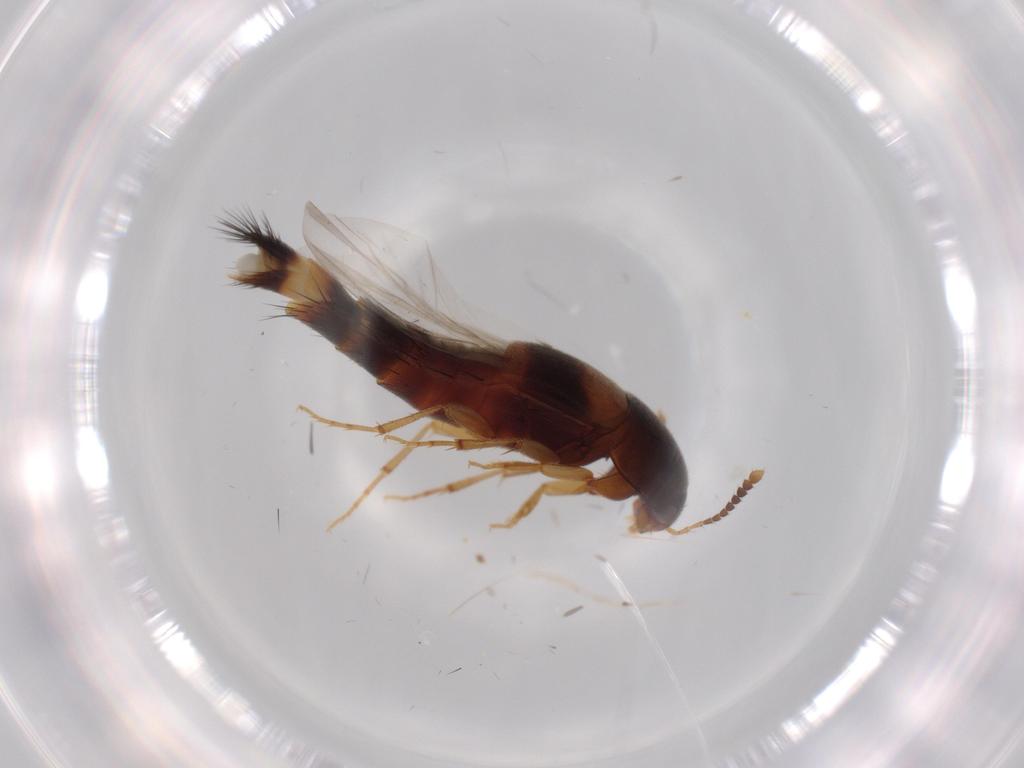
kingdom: Animalia
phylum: Arthropoda
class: Insecta
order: Coleoptera
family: Staphylinidae
